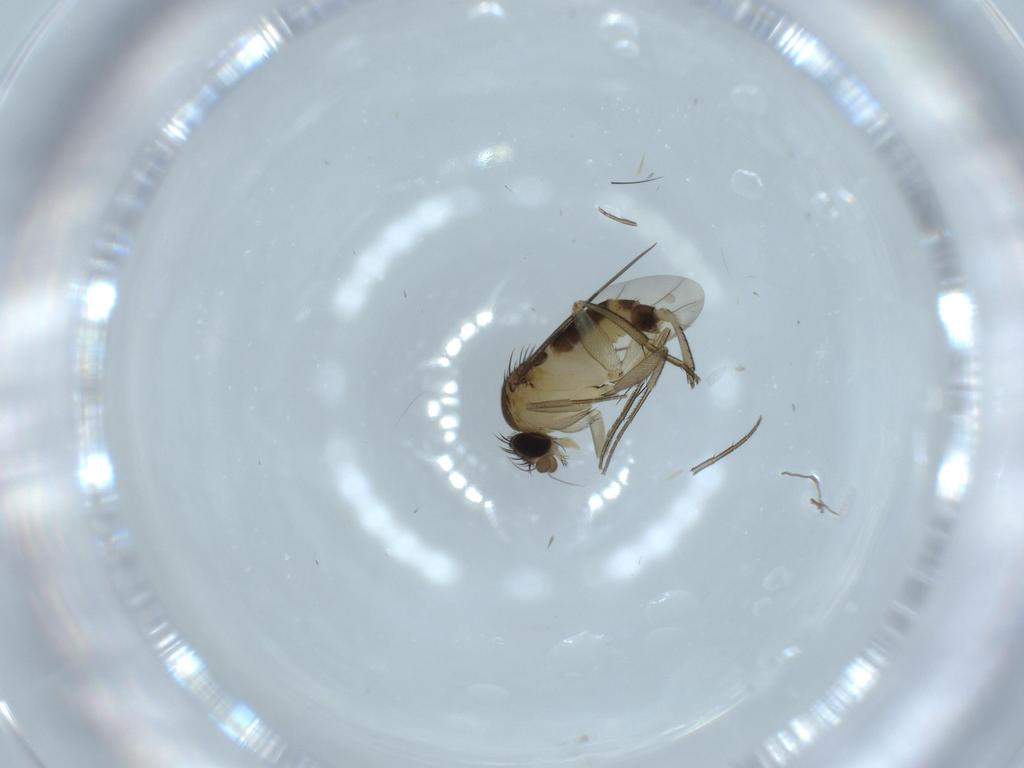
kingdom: Animalia
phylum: Arthropoda
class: Insecta
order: Diptera
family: Phoridae
